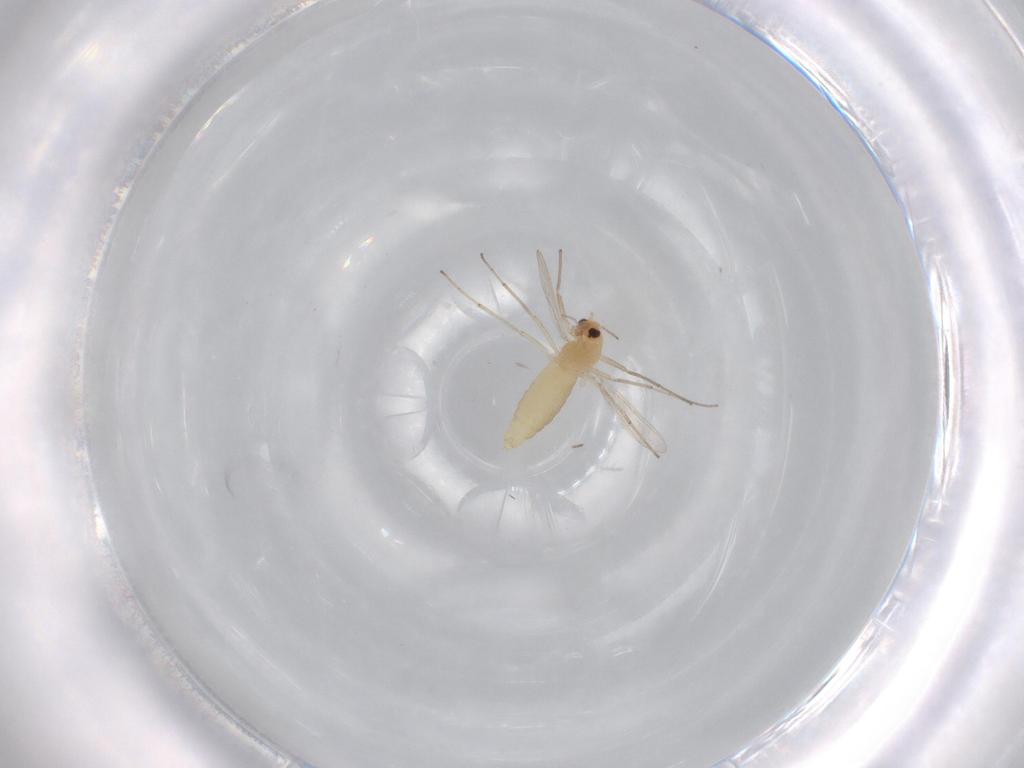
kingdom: Animalia
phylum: Arthropoda
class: Insecta
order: Diptera
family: Chironomidae
